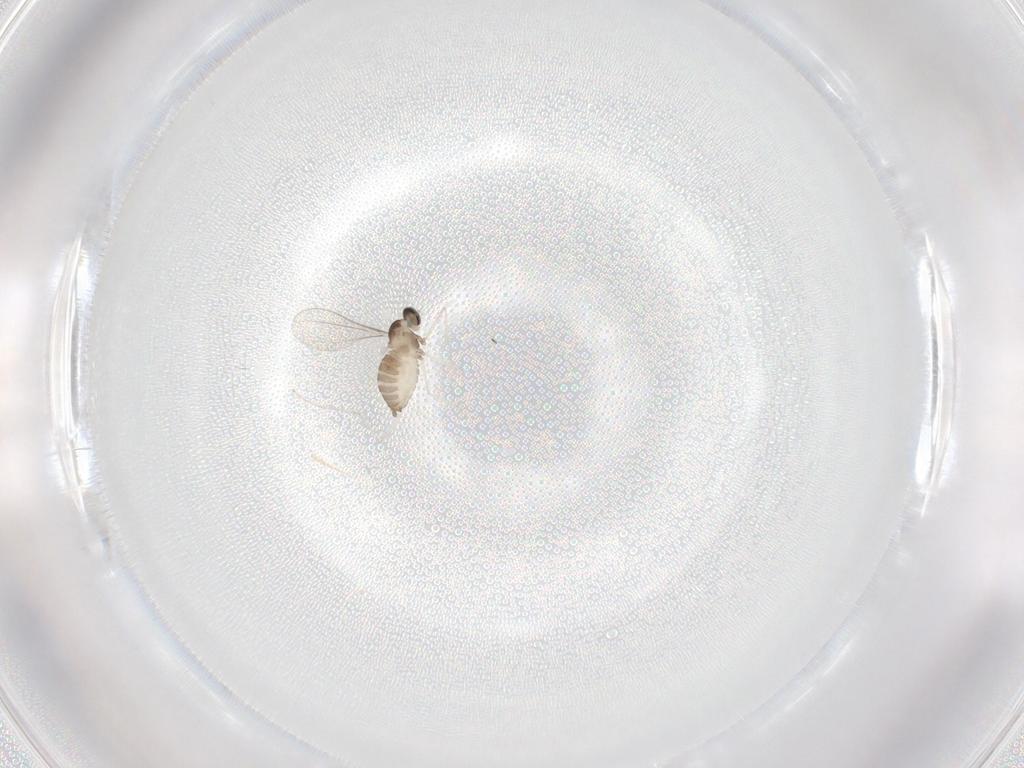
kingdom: Animalia
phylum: Arthropoda
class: Insecta
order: Diptera
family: Cecidomyiidae
